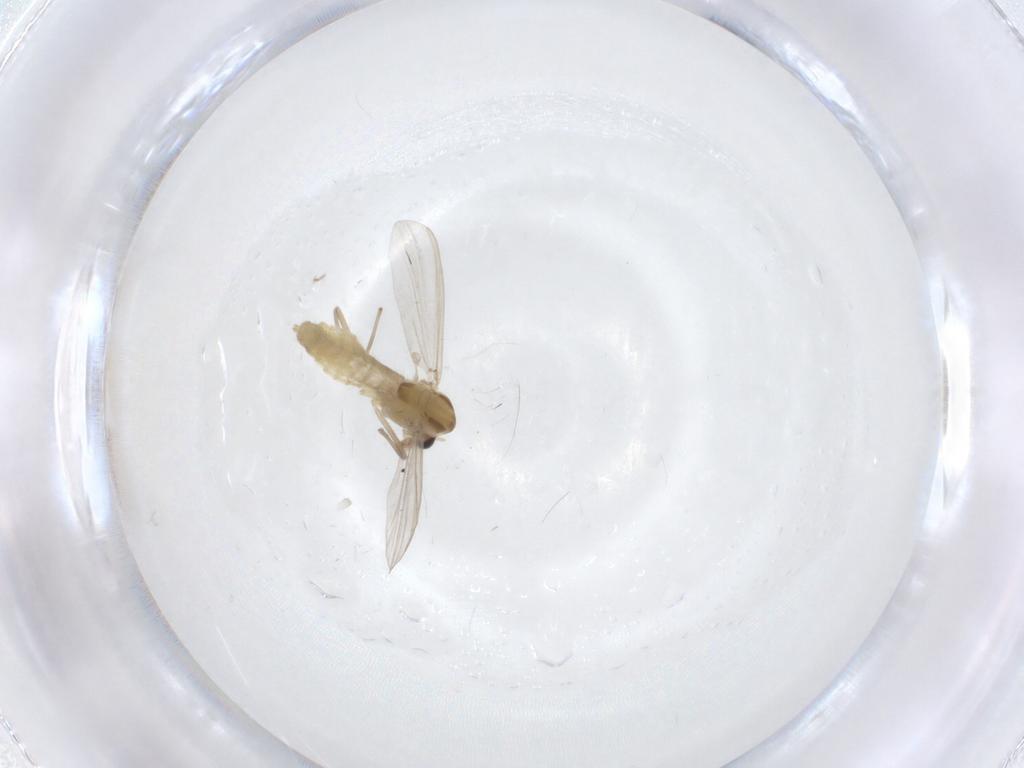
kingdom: Animalia
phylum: Arthropoda
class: Insecta
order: Diptera
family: Chironomidae
